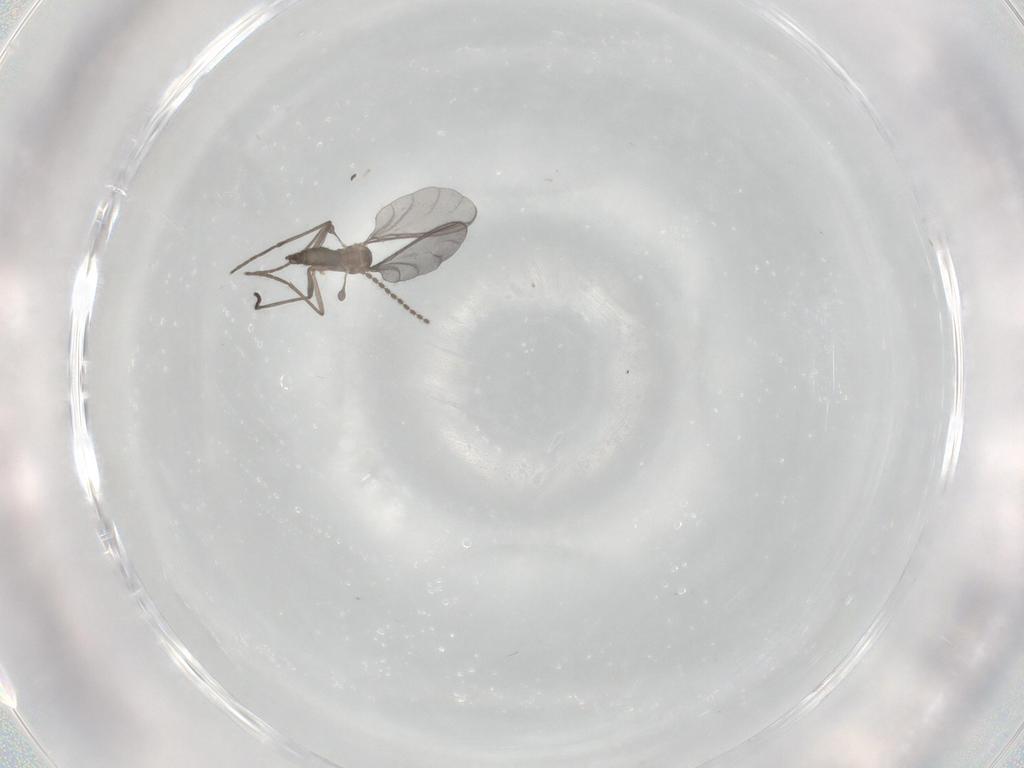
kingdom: Animalia
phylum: Arthropoda
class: Insecta
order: Diptera
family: Sciaridae
